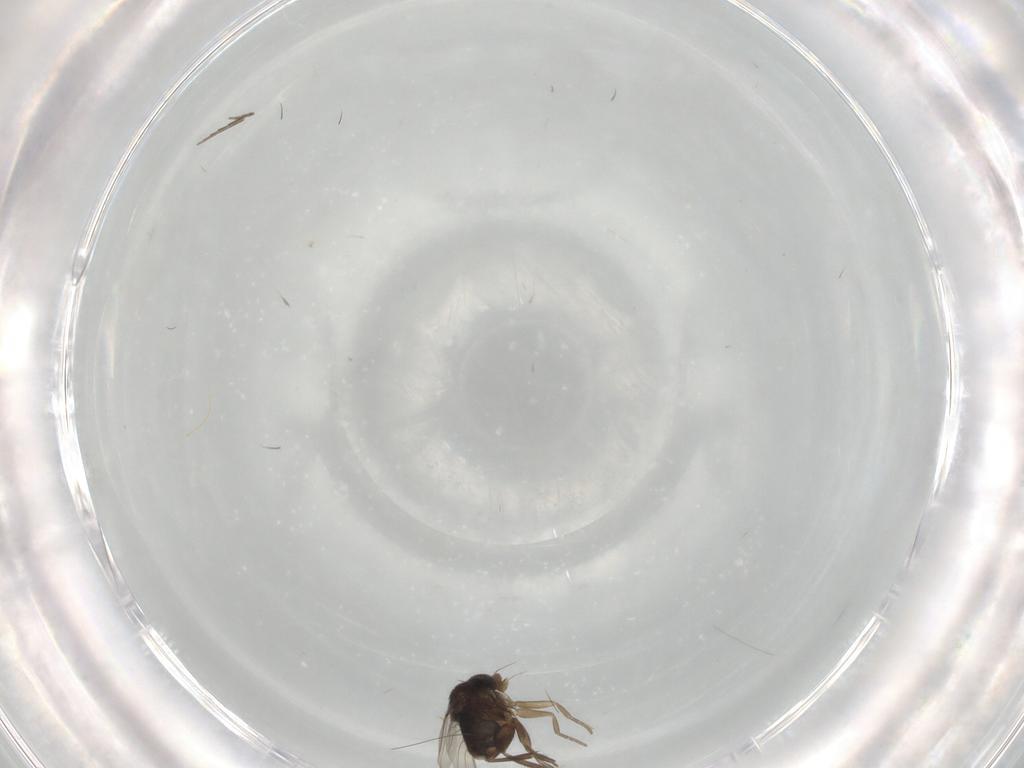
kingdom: Animalia
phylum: Arthropoda
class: Insecta
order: Diptera
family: Phoridae
